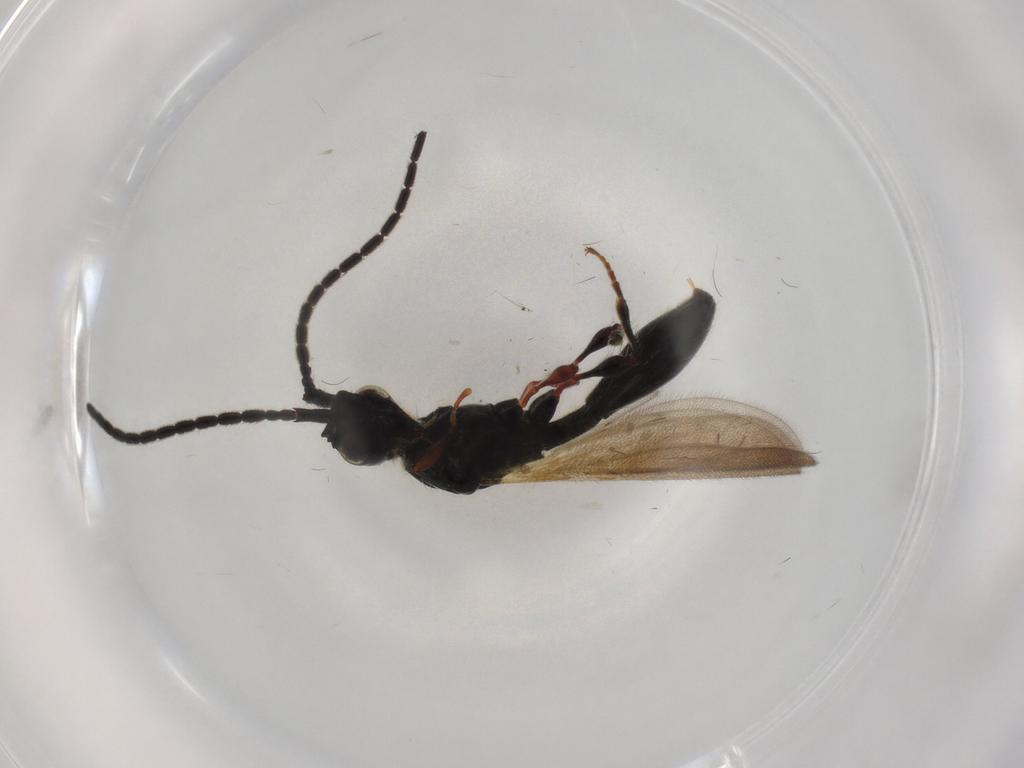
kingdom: Animalia
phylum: Arthropoda
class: Insecta
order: Hymenoptera
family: Diapriidae
